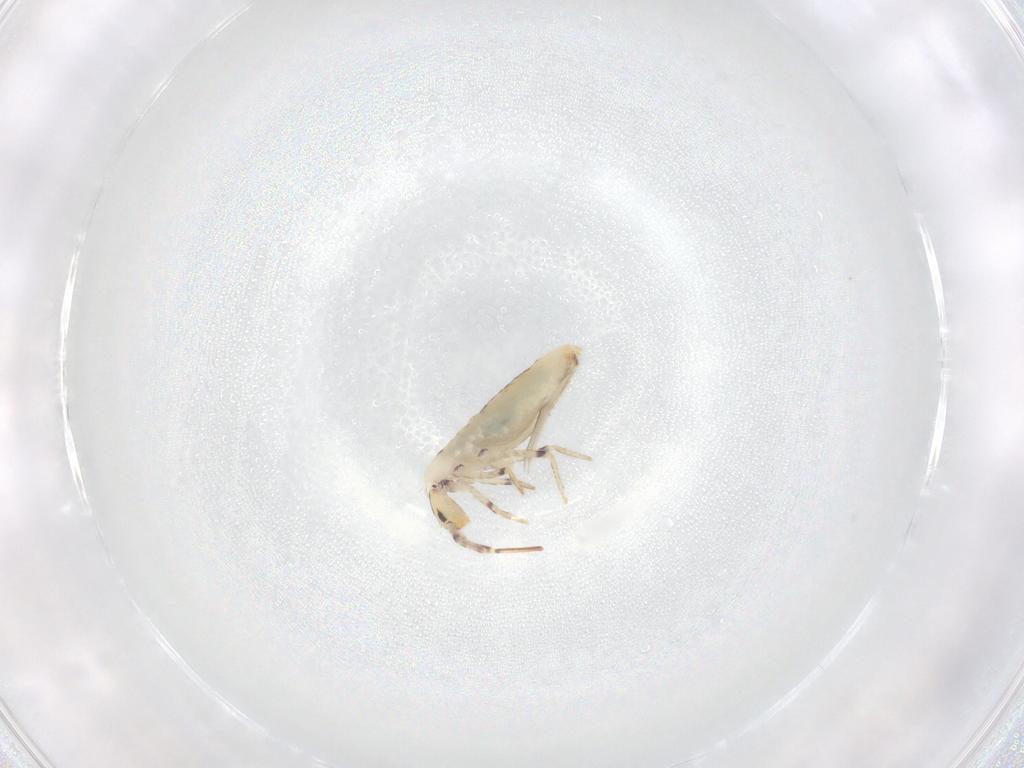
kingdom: Animalia
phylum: Arthropoda
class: Collembola
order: Entomobryomorpha
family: Entomobryidae
